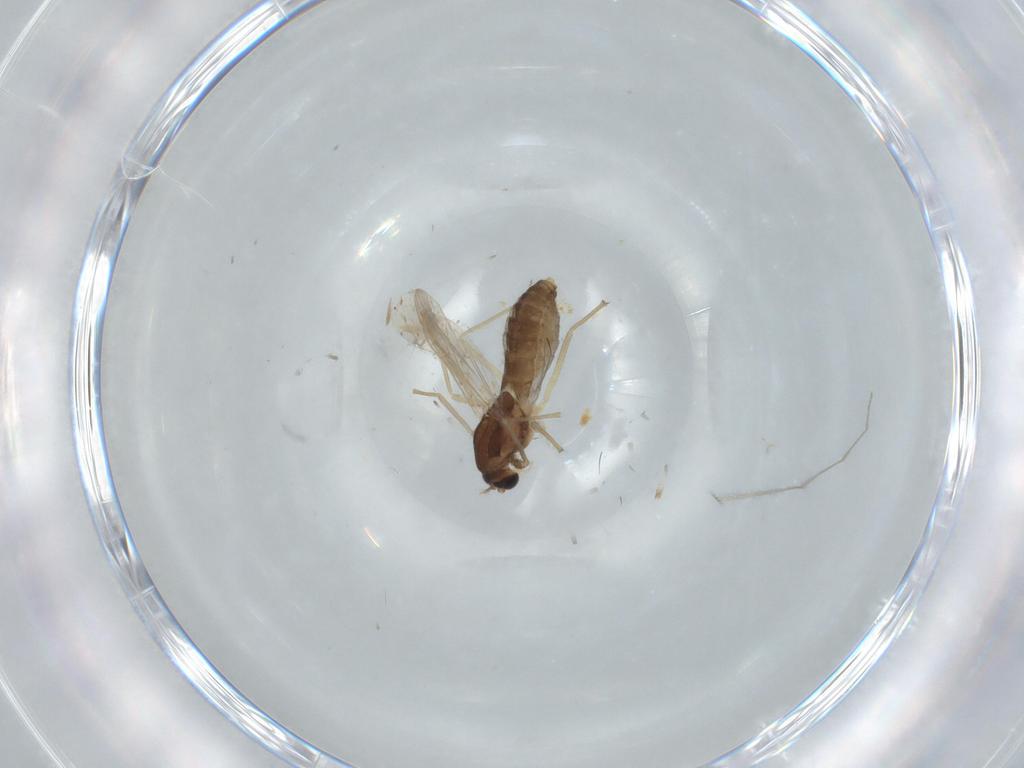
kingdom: Animalia
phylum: Arthropoda
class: Insecta
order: Diptera
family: Chironomidae
